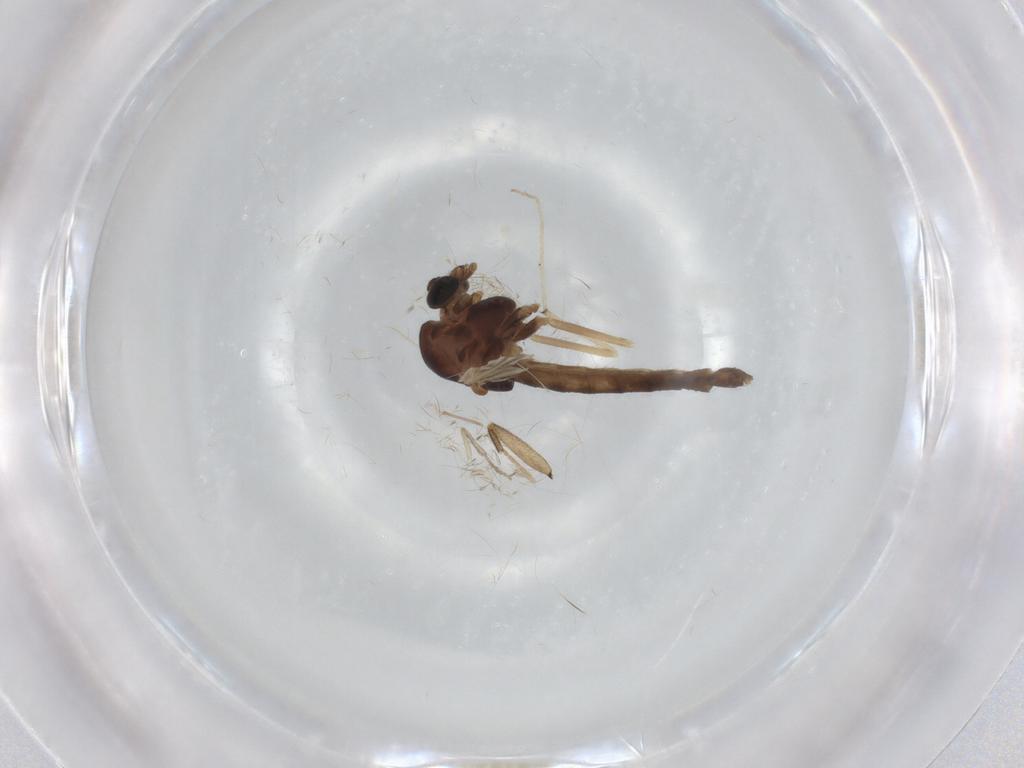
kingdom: Animalia
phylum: Arthropoda
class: Insecta
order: Diptera
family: Chironomidae
